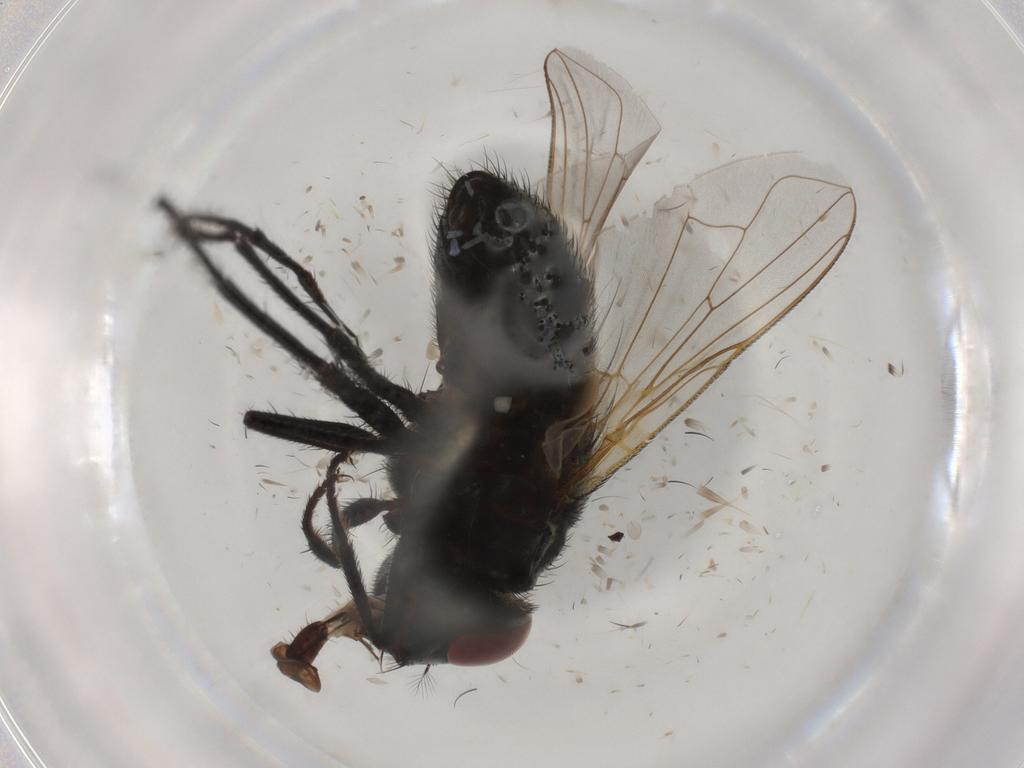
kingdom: Animalia
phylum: Arthropoda
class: Insecta
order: Diptera
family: Muscidae
